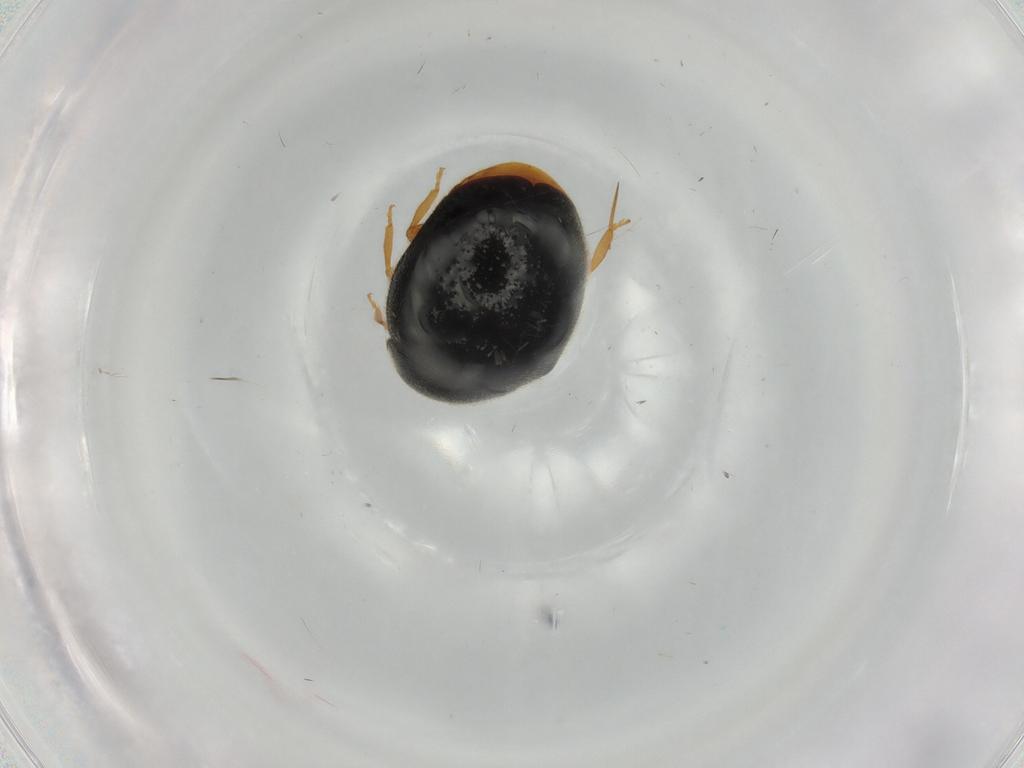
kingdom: Animalia
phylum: Arthropoda
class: Insecta
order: Coleoptera
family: Coccinellidae
